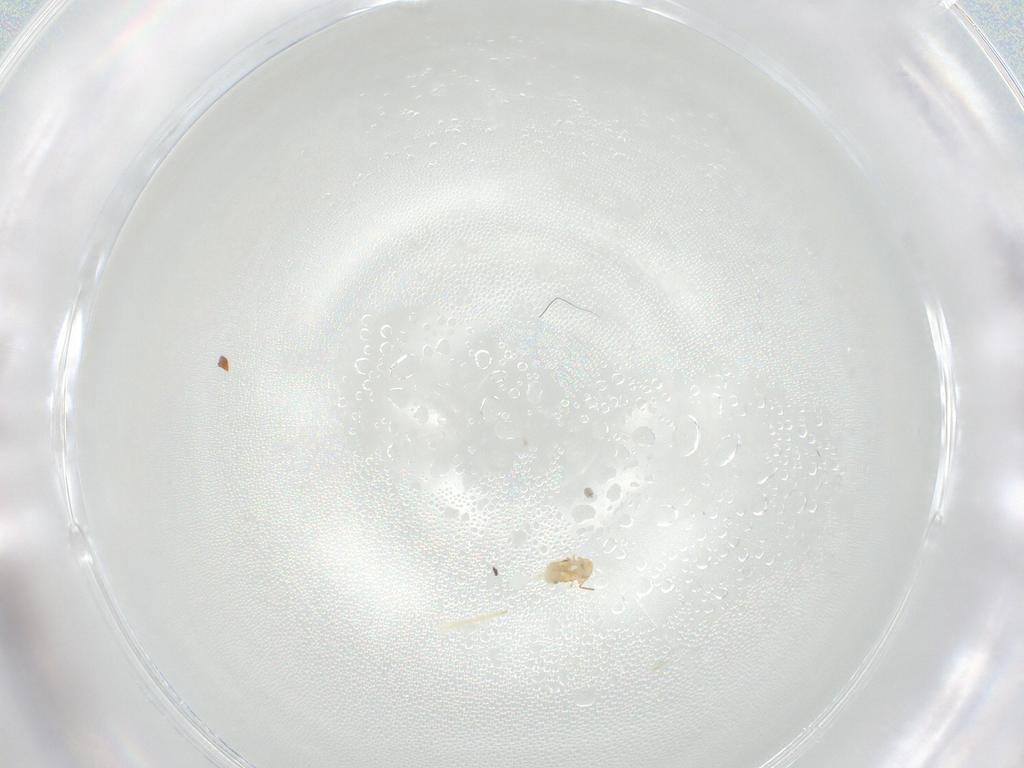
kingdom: Animalia
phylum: Arthropoda
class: Collembola
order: Symphypleona
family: Bourletiellidae
